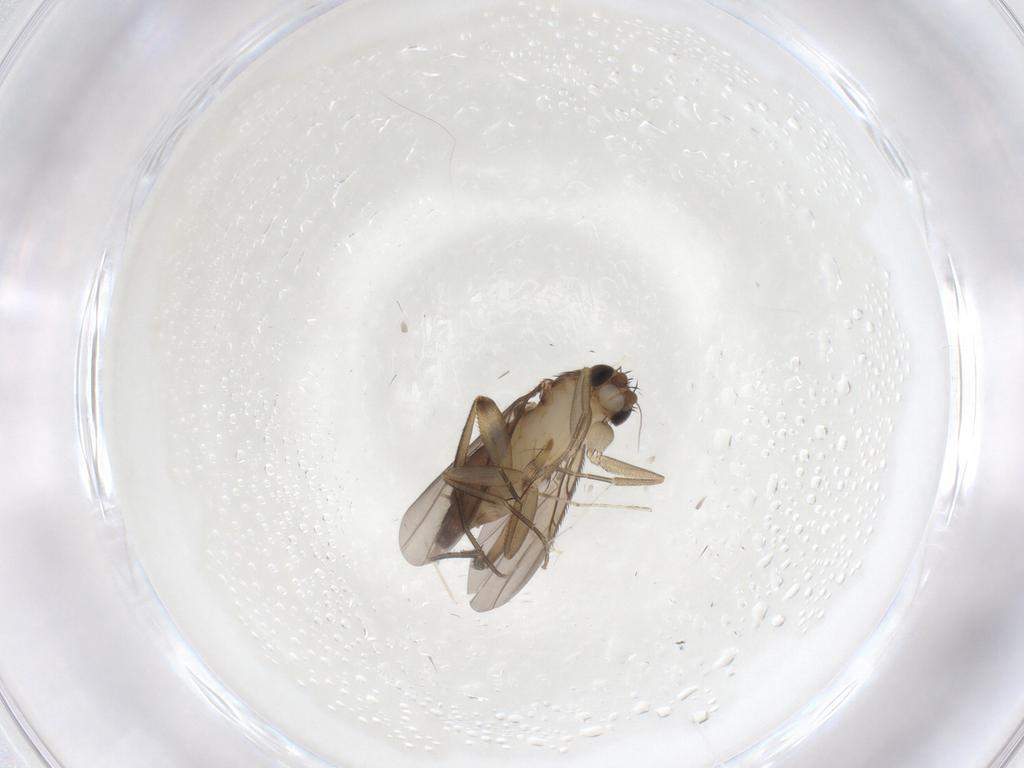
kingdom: Animalia
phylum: Arthropoda
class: Insecta
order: Diptera
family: Phoridae
